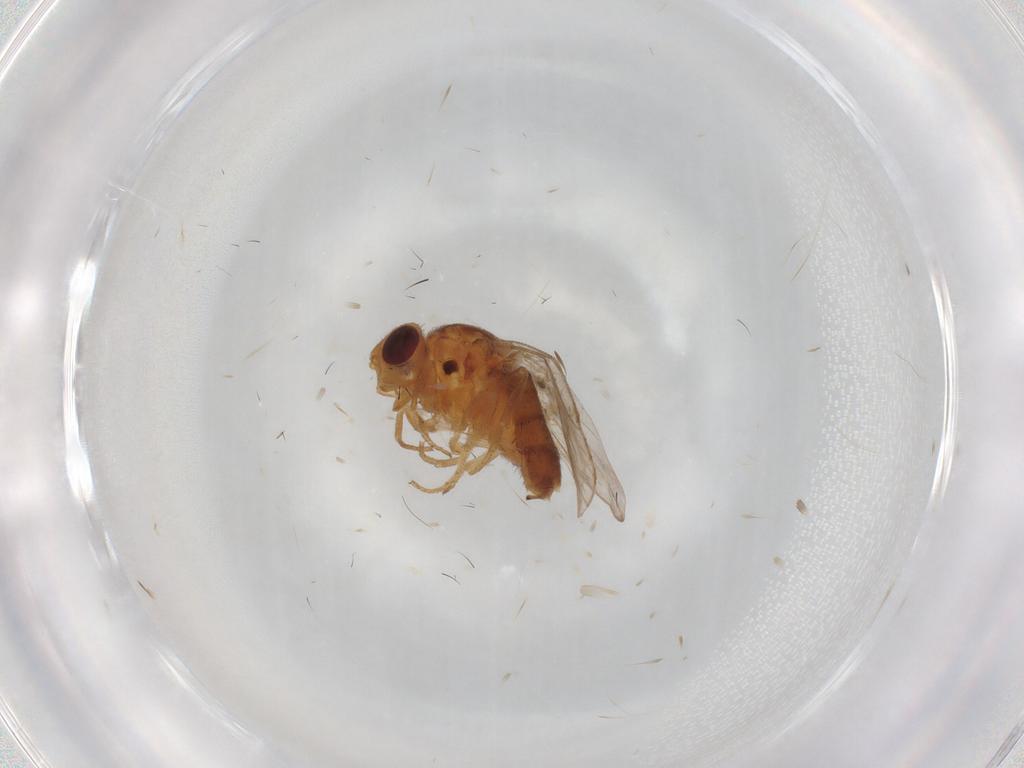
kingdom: Animalia
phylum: Arthropoda
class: Insecta
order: Diptera
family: Chloropidae
